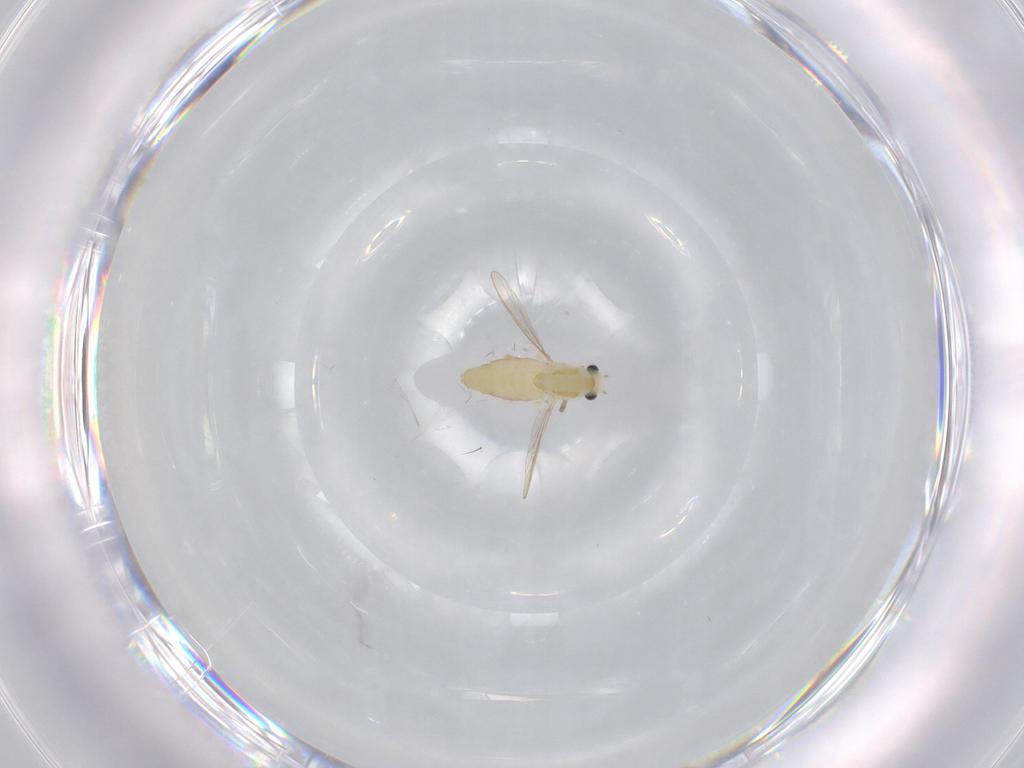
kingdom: Animalia
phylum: Arthropoda
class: Insecta
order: Diptera
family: Chironomidae
